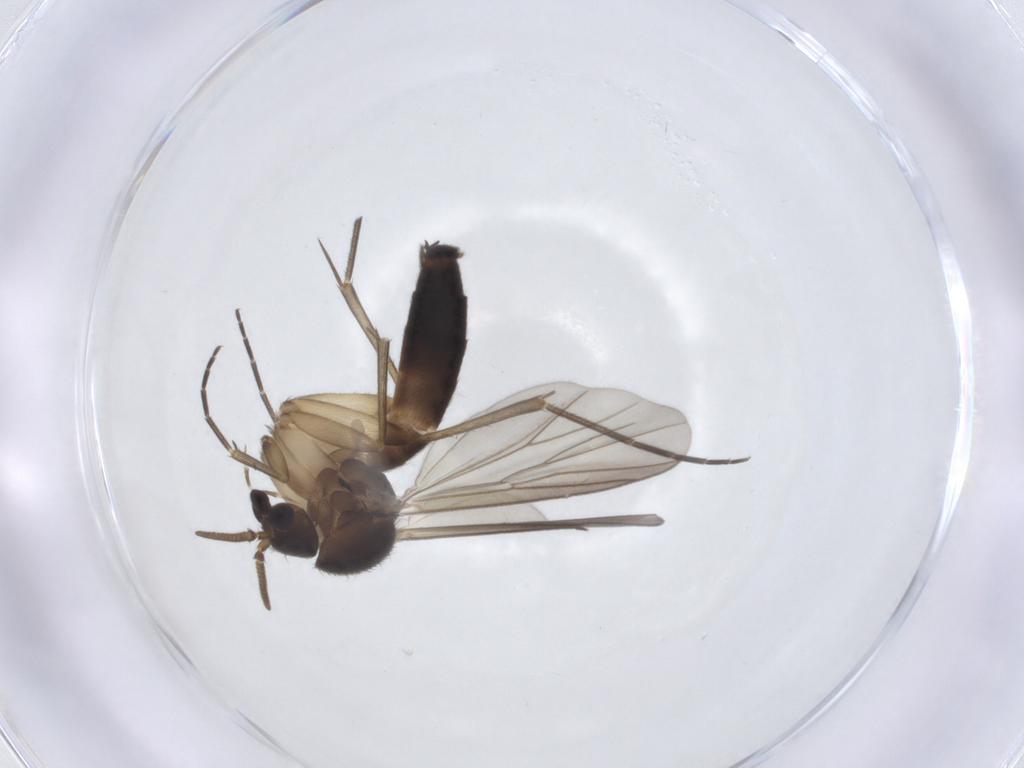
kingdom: Animalia
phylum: Arthropoda
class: Insecta
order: Diptera
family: Mycetophilidae
